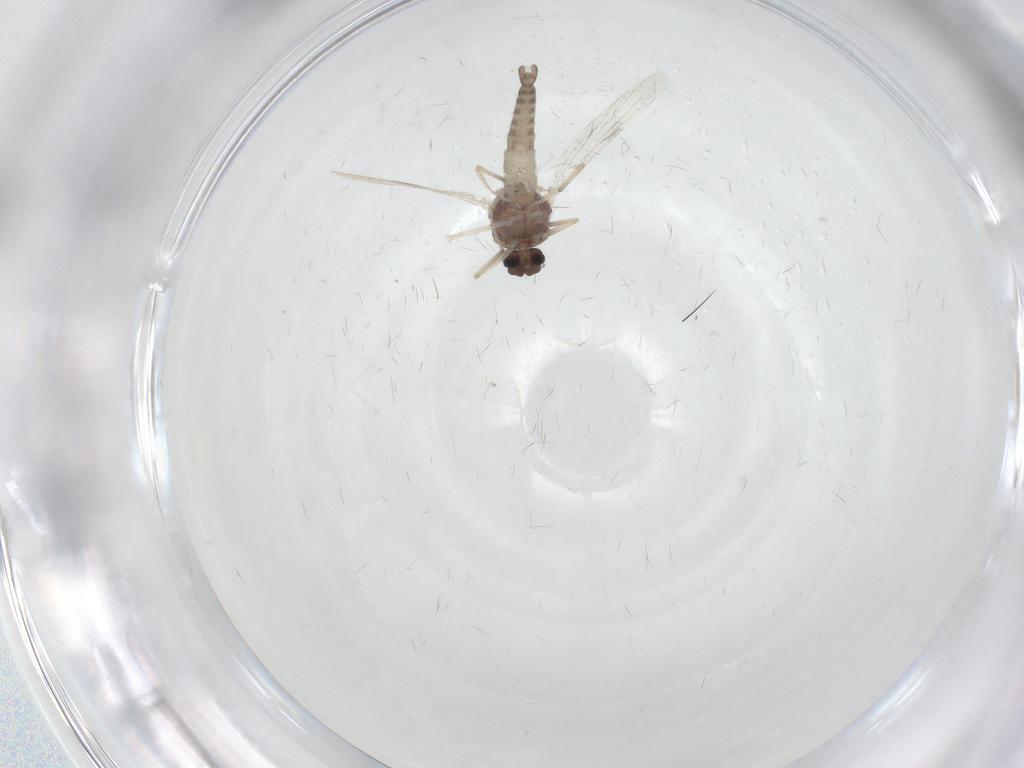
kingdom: Animalia
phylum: Arthropoda
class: Insecta
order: Diptera
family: Ceratopogonidae
